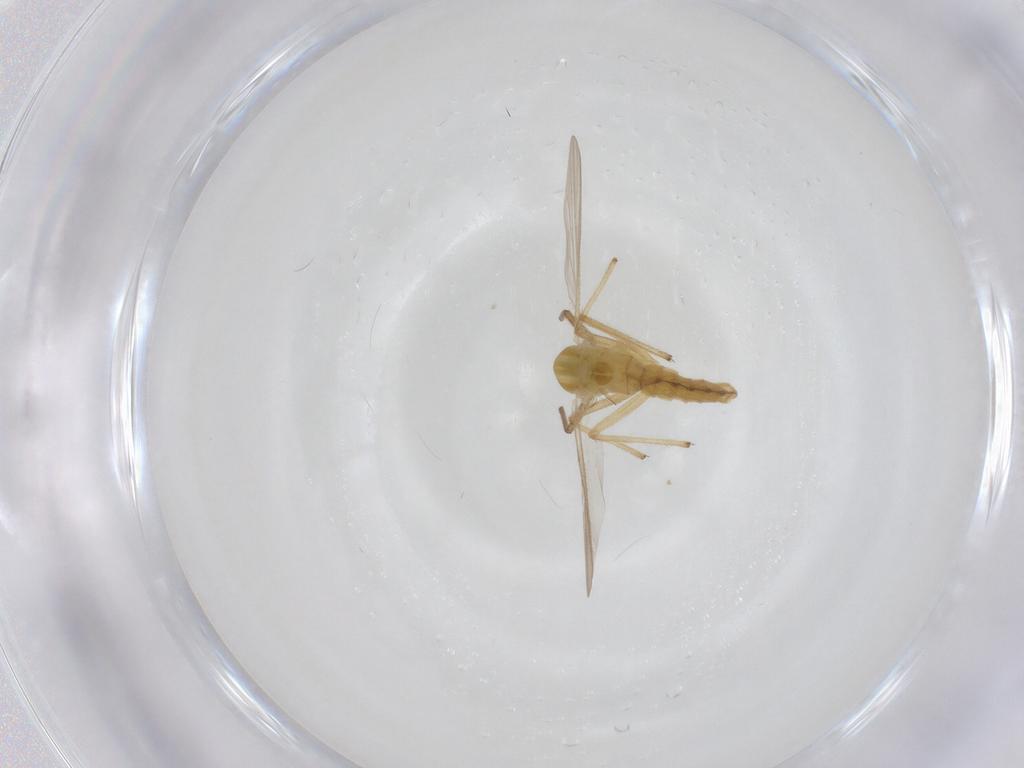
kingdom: Animalia
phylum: Arthropoda
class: Insecta
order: Diptera
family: Chironomidae
